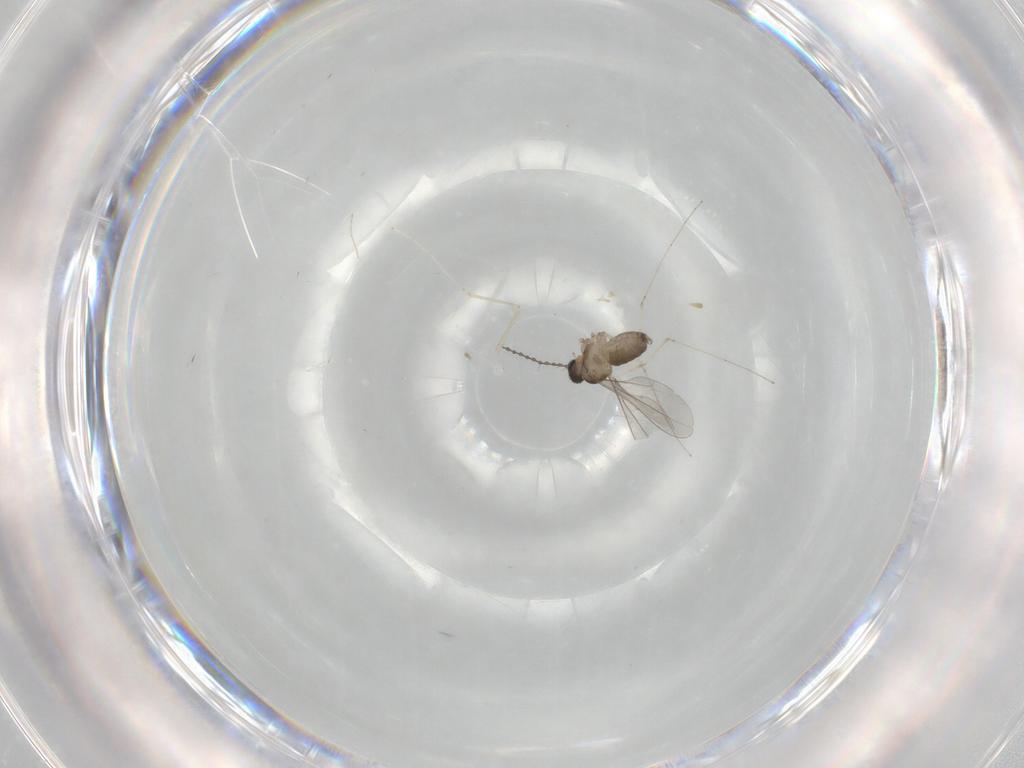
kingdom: Animalia
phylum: Arthropoda
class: Insecta
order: Diptera
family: Cecidomyiidae
